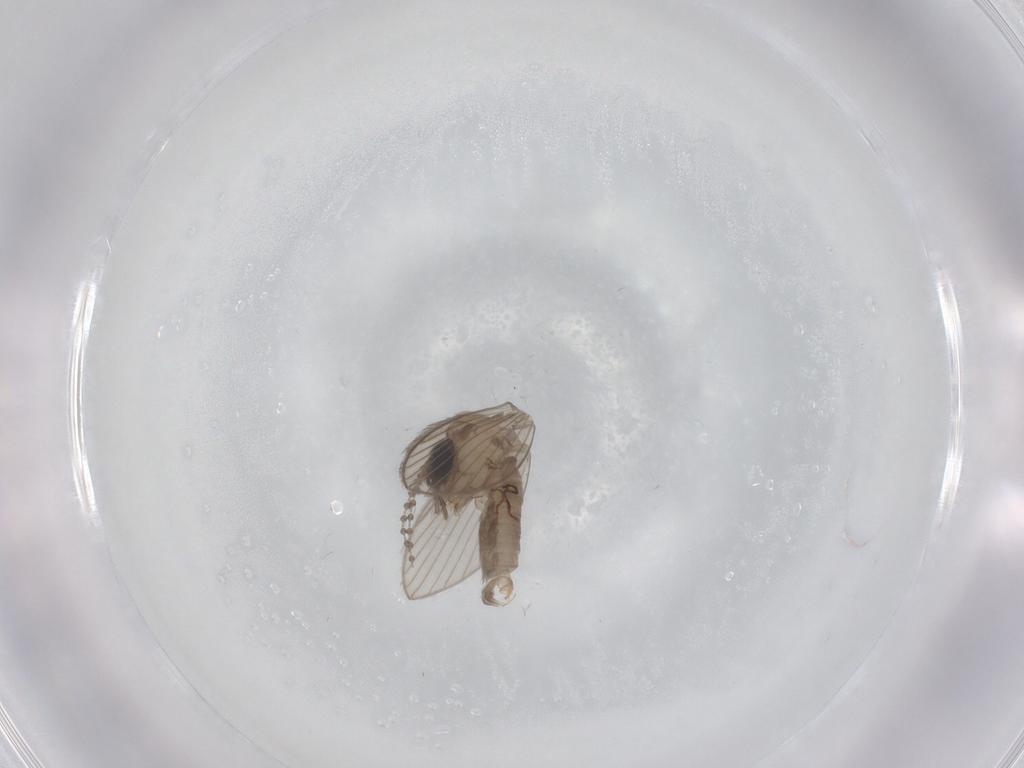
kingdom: Animalia
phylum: Arthropoda
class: Insecta
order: Diptera
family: Psychodidae
